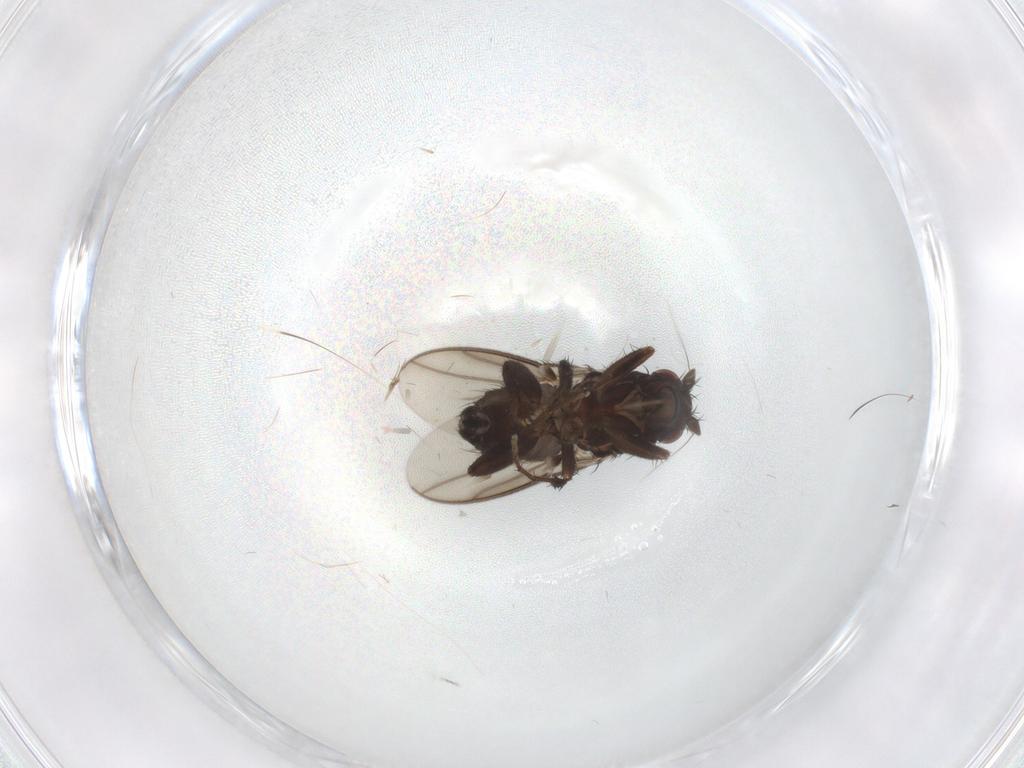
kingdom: Animalia
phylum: Arthropoda
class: Insecta
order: Diptera
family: Sphaeroceridae
